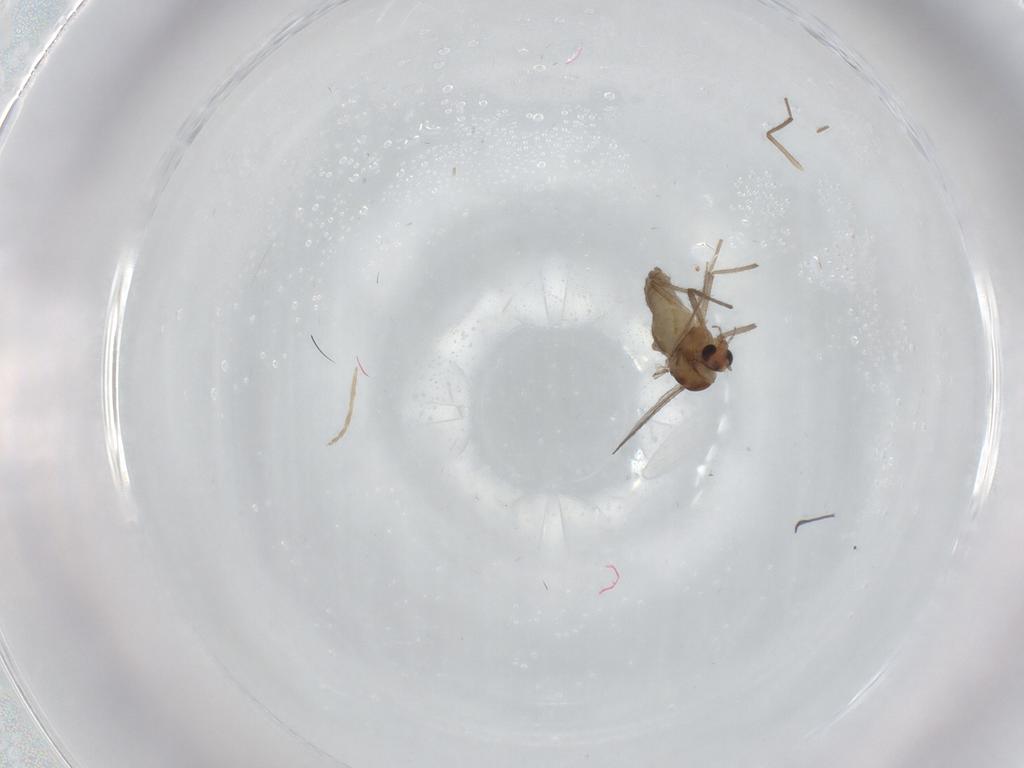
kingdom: Animalia
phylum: Arthropoda
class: Insecta
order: Diptera
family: Chironomidae
